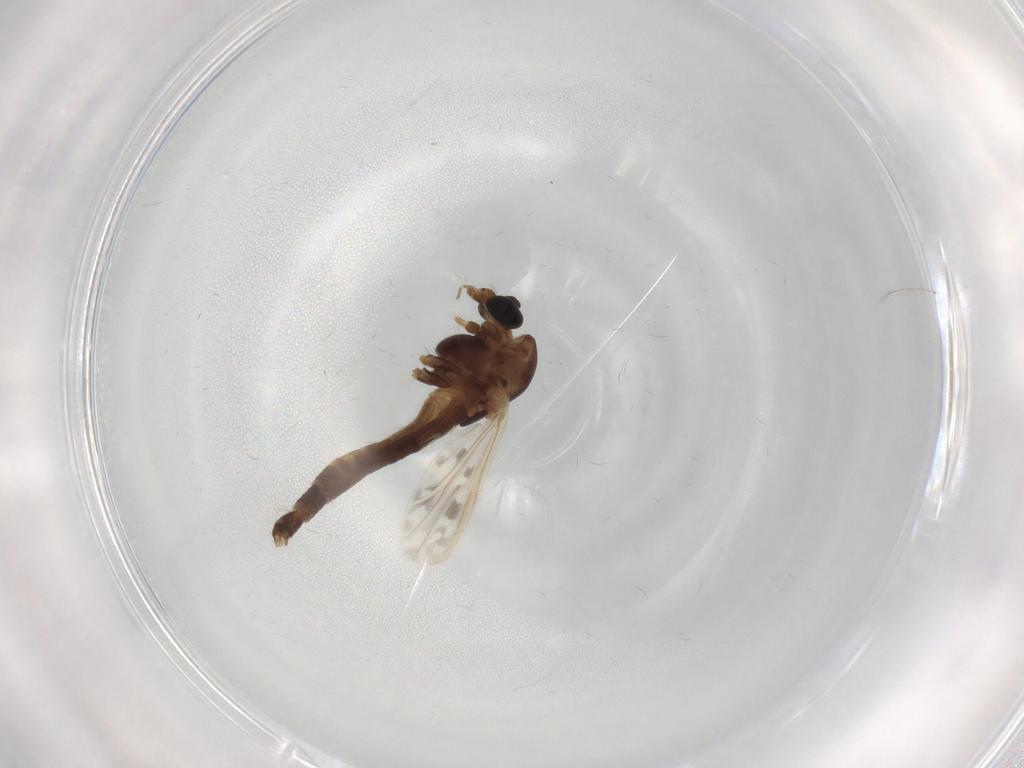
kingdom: Animalia
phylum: Arthropoda
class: Insecta
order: Diptera
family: Chironomidae
